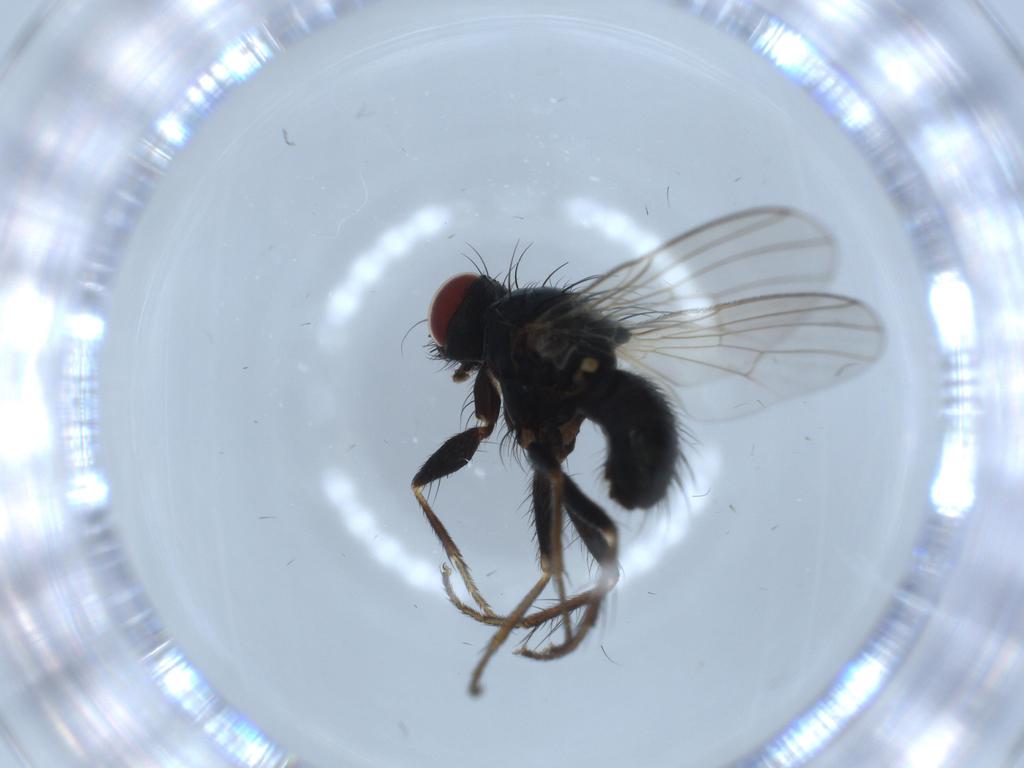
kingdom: Animalia
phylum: Arthropoda
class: Insecta
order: Diptera
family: Muscidae
